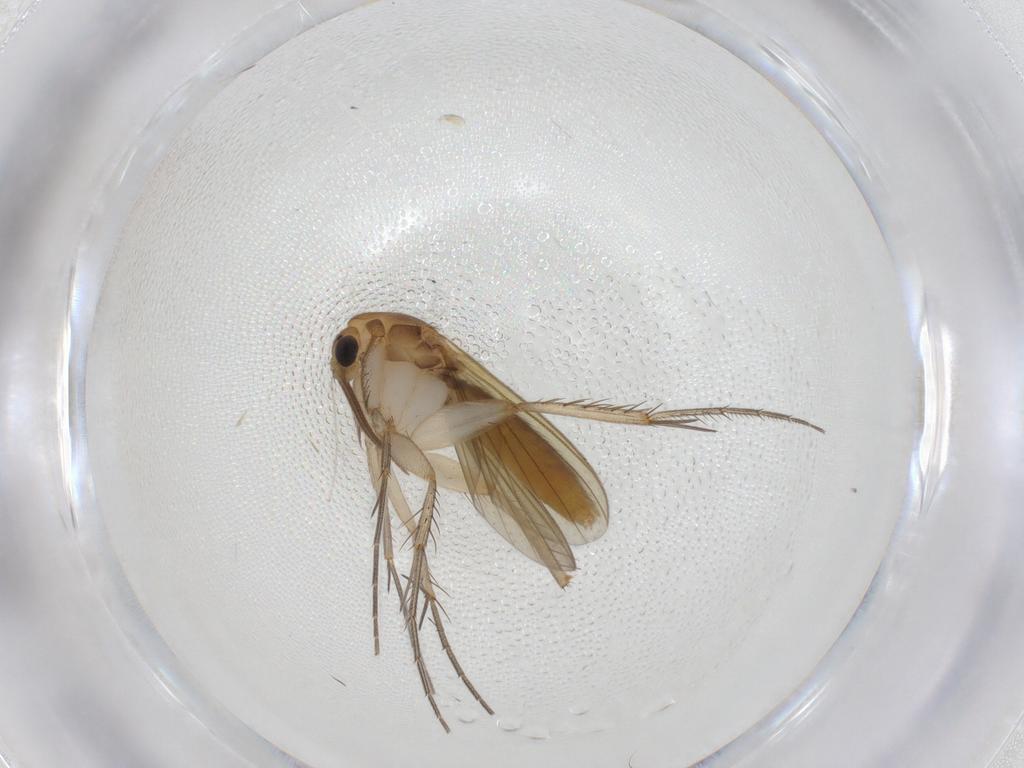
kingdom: Animalia
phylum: Arthropoda
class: Insecta
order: Diptera
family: Mycetophilidae
